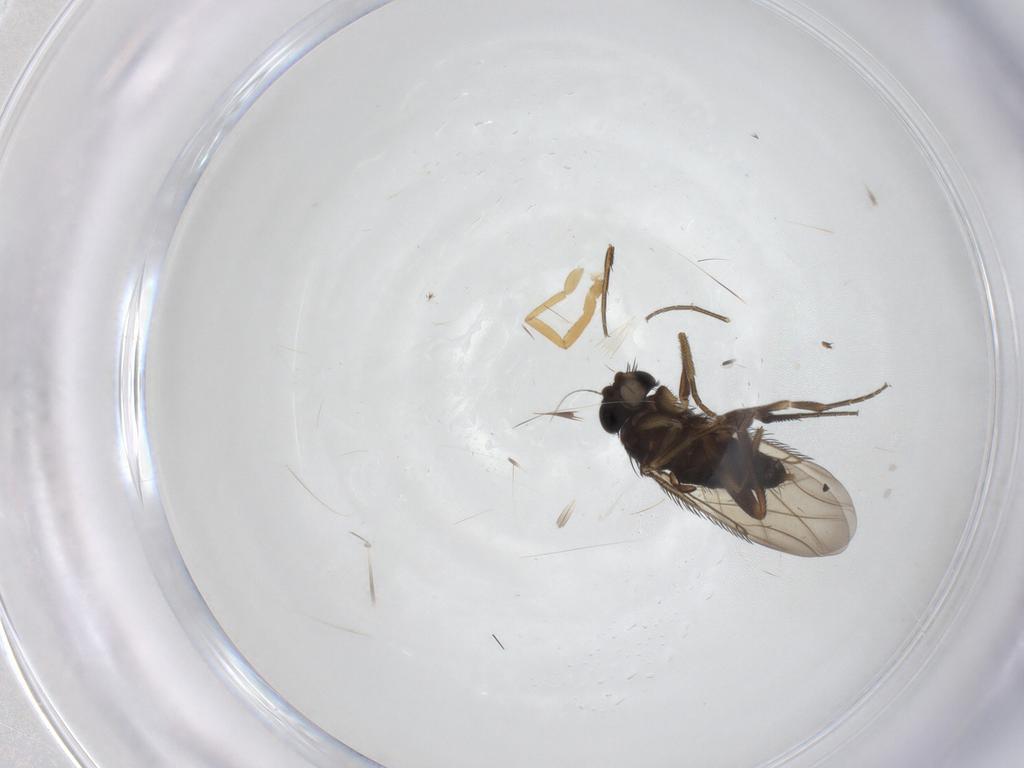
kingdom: Animalia
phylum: Arthropoda
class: Insecta
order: Diptera
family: Phoridae
